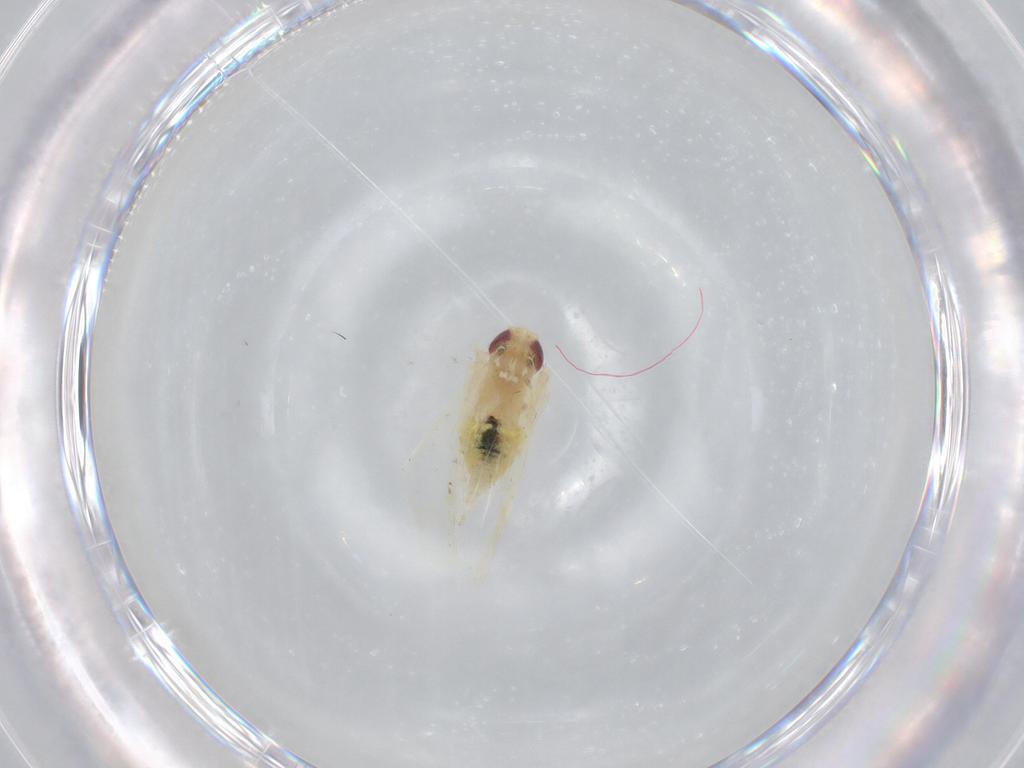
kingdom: Animalia
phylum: Arthropoda
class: Insecta
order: Hemiptera
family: Cicadellidae
